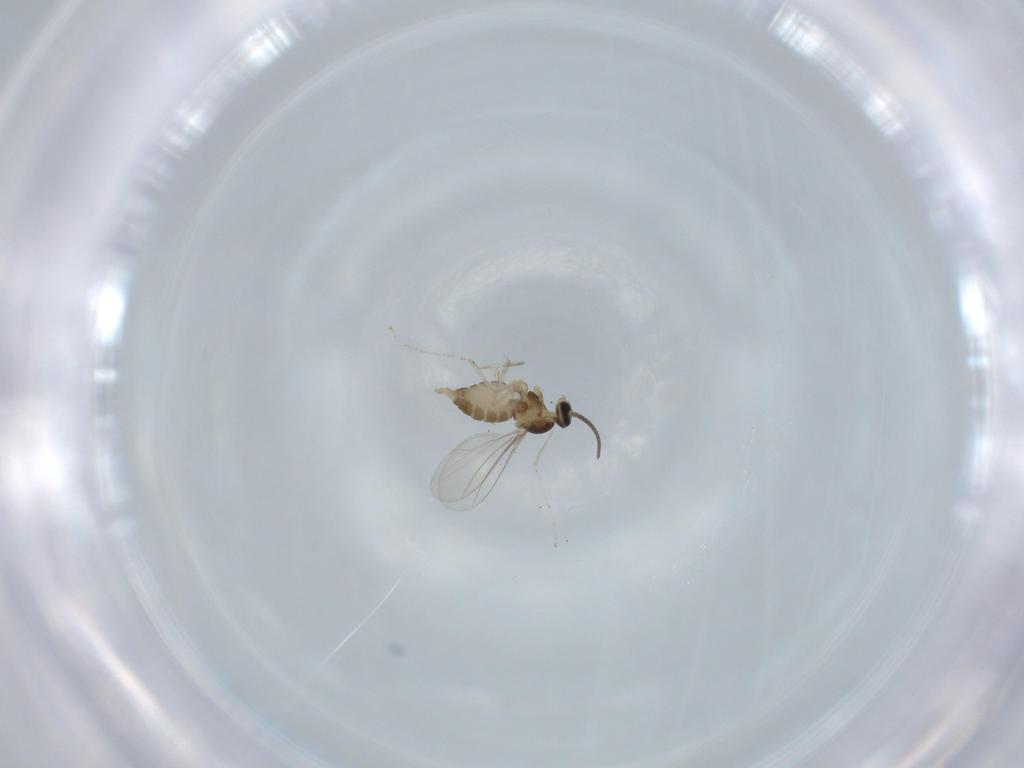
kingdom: Animalia
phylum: Arthropoda
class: Insecta
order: Diptera
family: Cecidomyiidae
